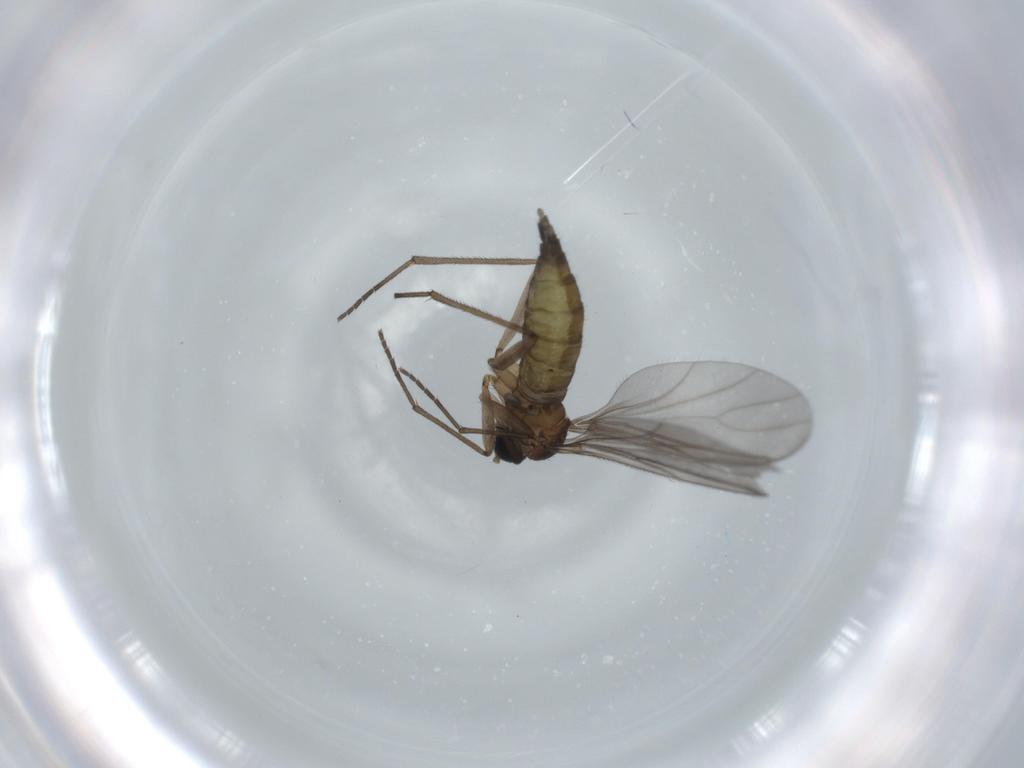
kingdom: Animalia
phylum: Arthropoda
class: Insecta
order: Diptera
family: Sciaridae
